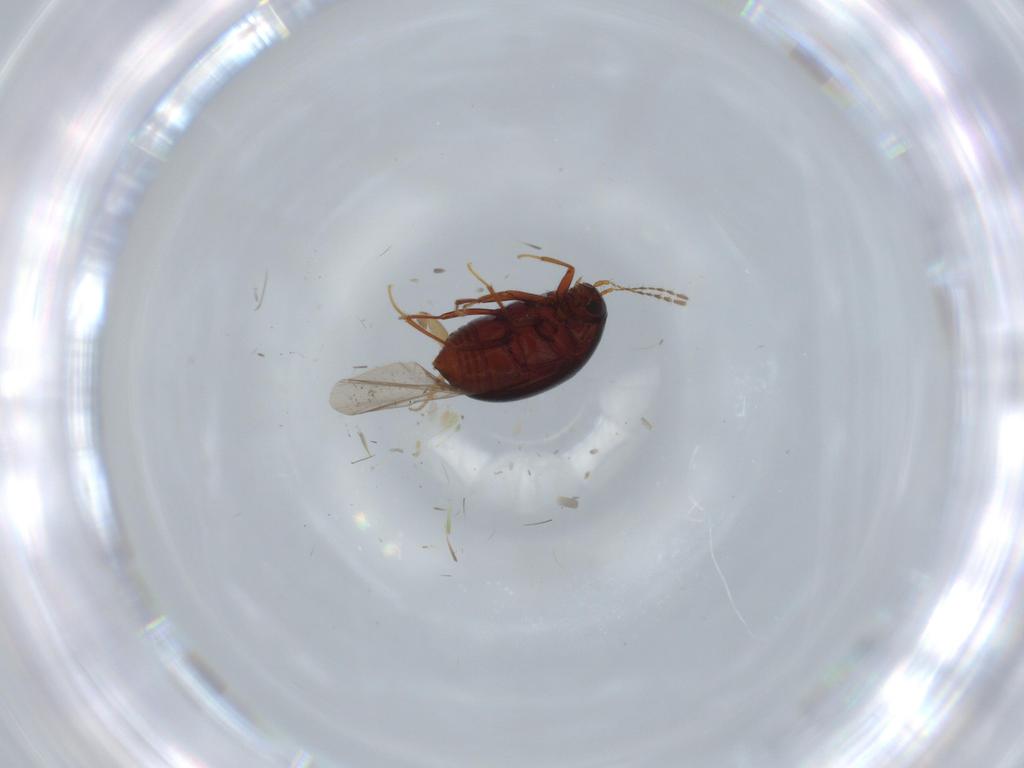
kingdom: Animalia
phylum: Arthropoda
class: Insecta
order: Coleoptera
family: Staphylinidae
